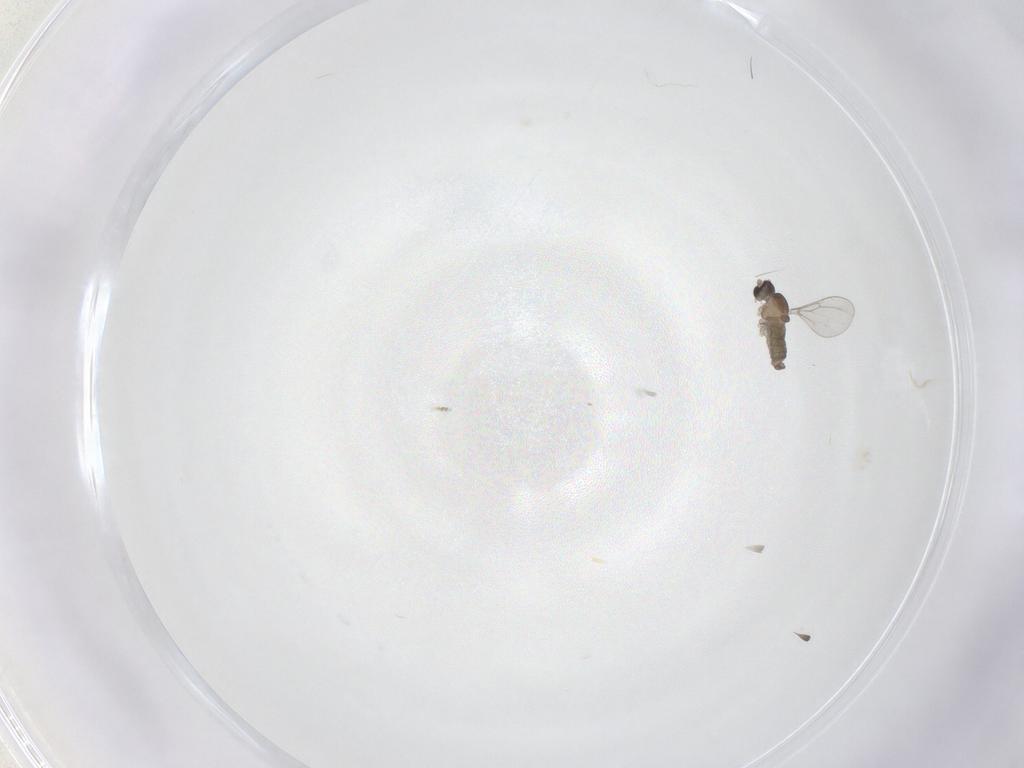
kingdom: Animalia
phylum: Arthropoda
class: Insecta
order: Diptera
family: Cecidomyiidae
